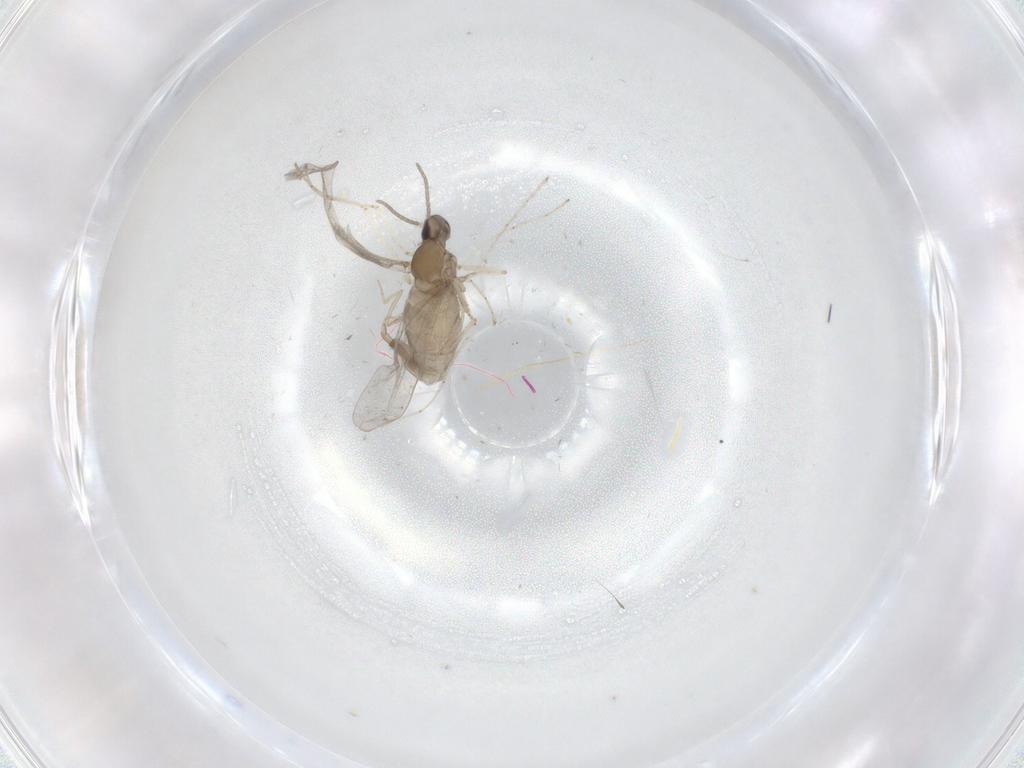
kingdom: Animalia
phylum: Arthropoda
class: Insecta
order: Diptera
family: Cecidomyiidae
